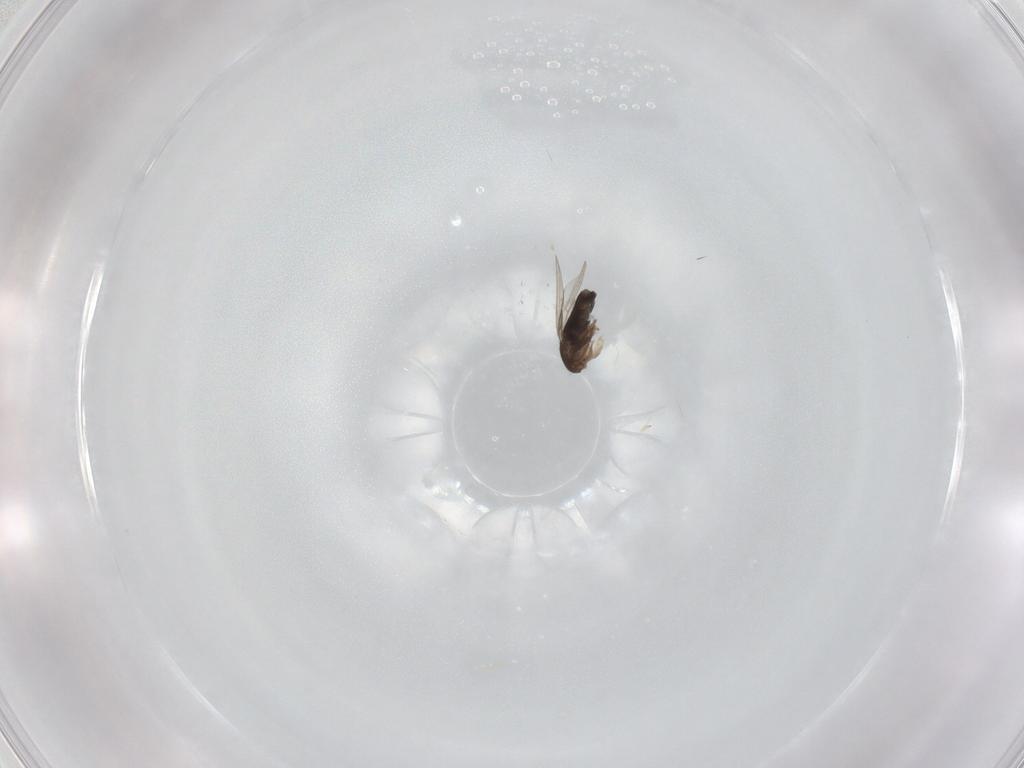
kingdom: Animalia
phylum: Arthropoda
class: Insecta
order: Diptera
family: Phoridae
